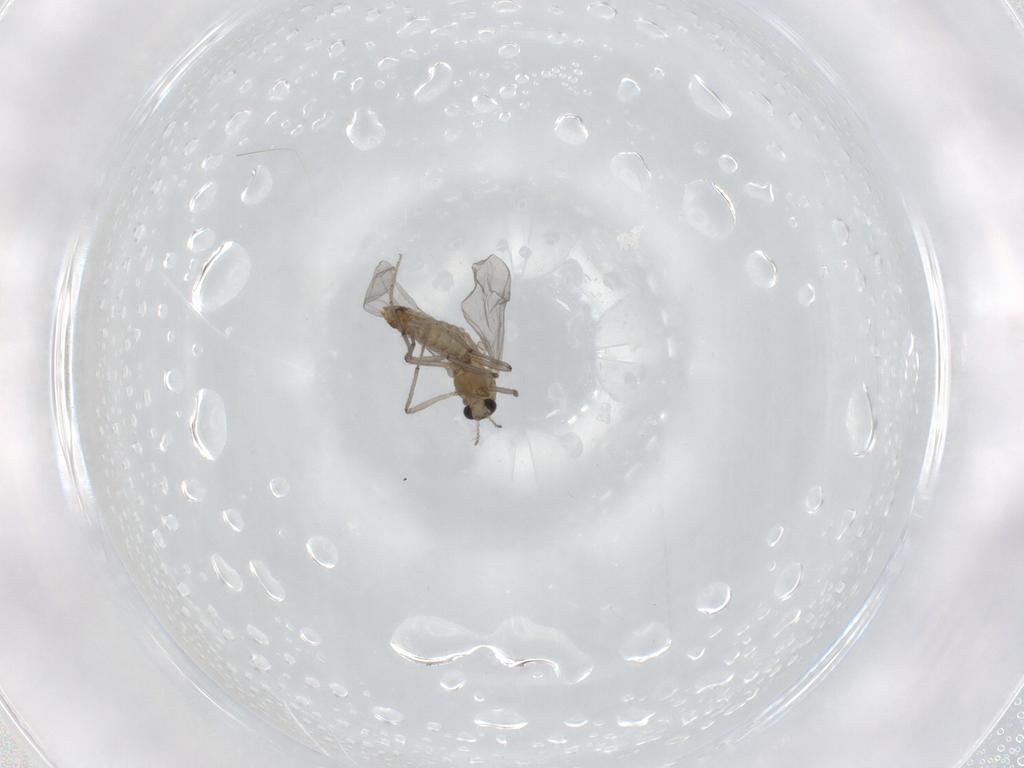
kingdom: Animalia
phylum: Arthropoda
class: Insecta
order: Diptera
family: Chironomidae
